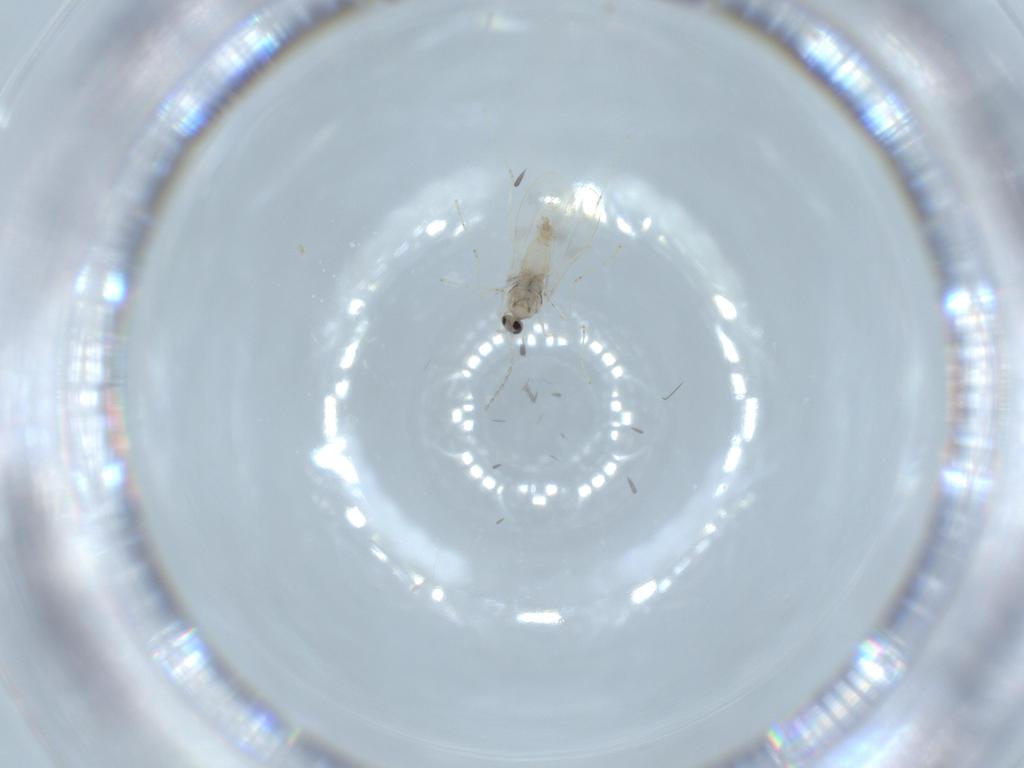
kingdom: Animalia
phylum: Arthropoda
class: Insecta
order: Diptera
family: Cecidomyiidae
